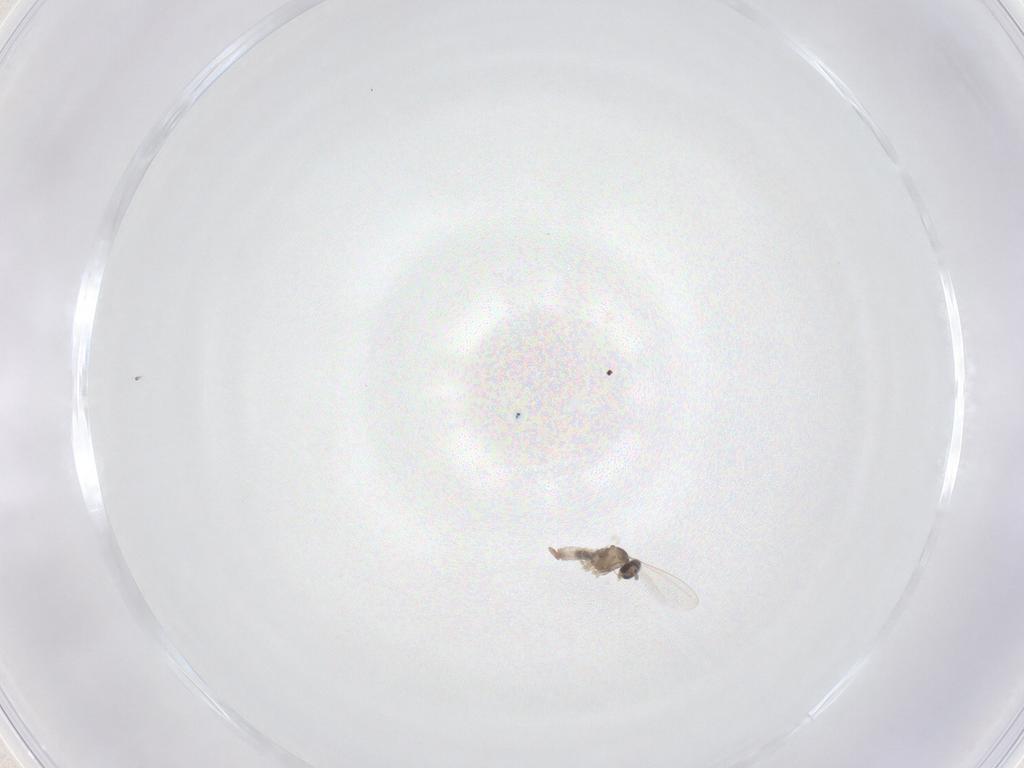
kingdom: Animalia
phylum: Arthropoda
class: Insecta
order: Diptera
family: Cecidomyiidae
